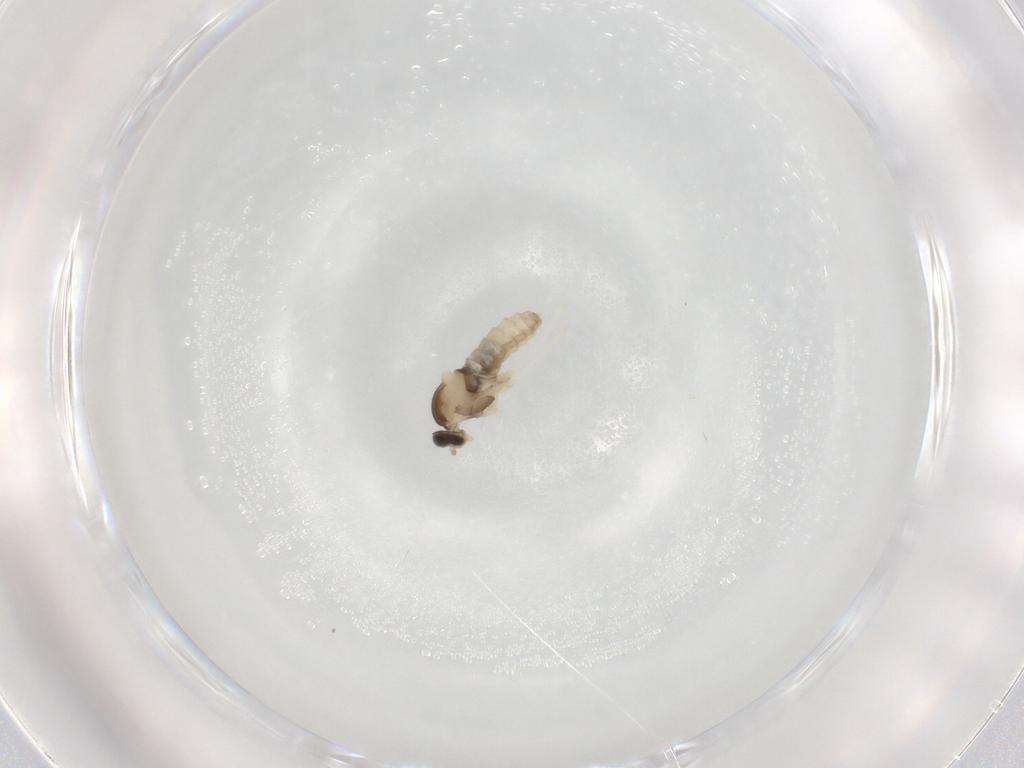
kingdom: Animalia
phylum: Arthropoda
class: Insecta
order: Diptera
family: Cecidomyiidae
